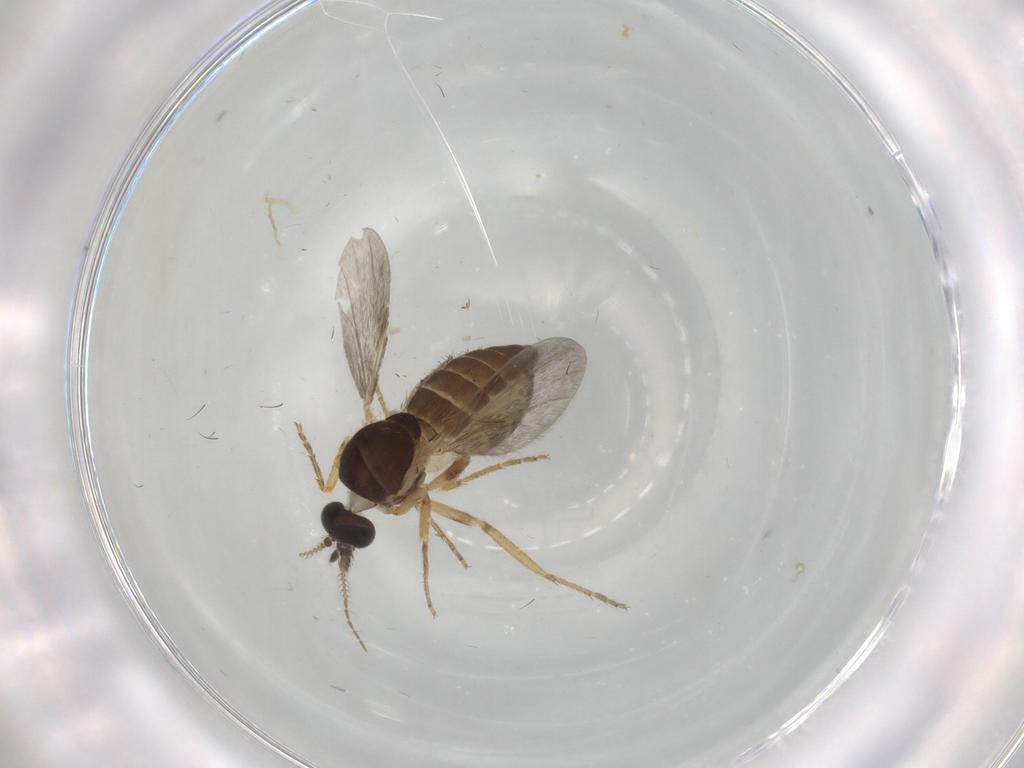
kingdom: Animalia
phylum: Arthropoda
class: Insecta
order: Diptera
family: Ceratopogonidae
